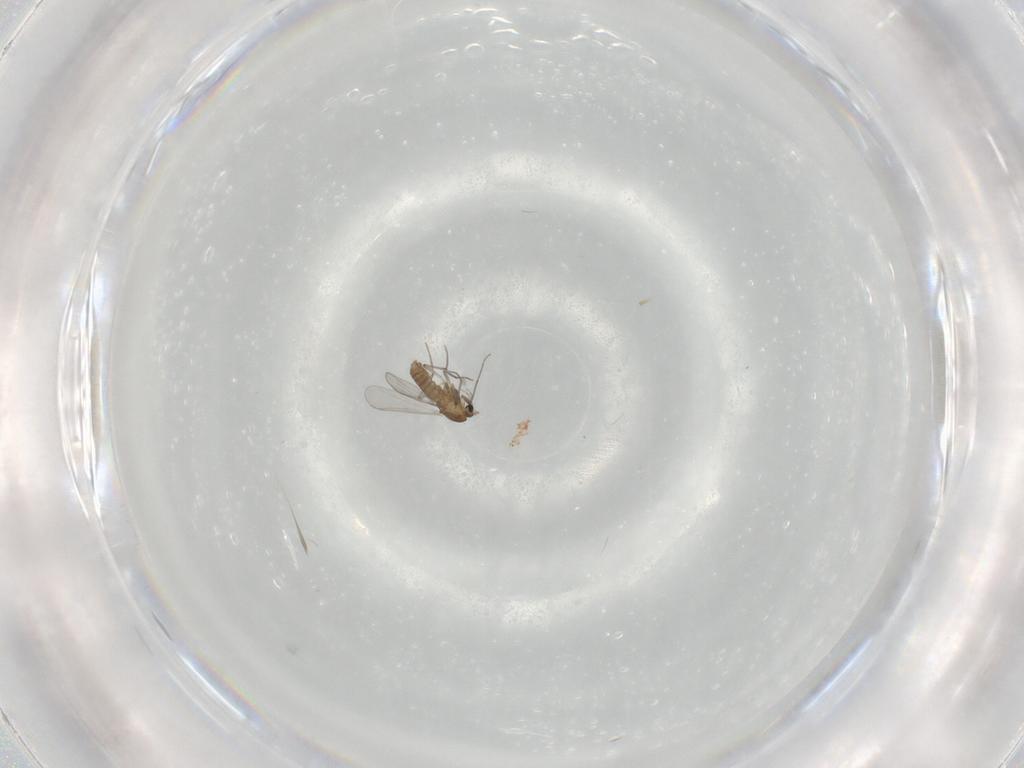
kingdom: Animalia
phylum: Arthropoda
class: Insecta
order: Diptera
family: Chironomidae
